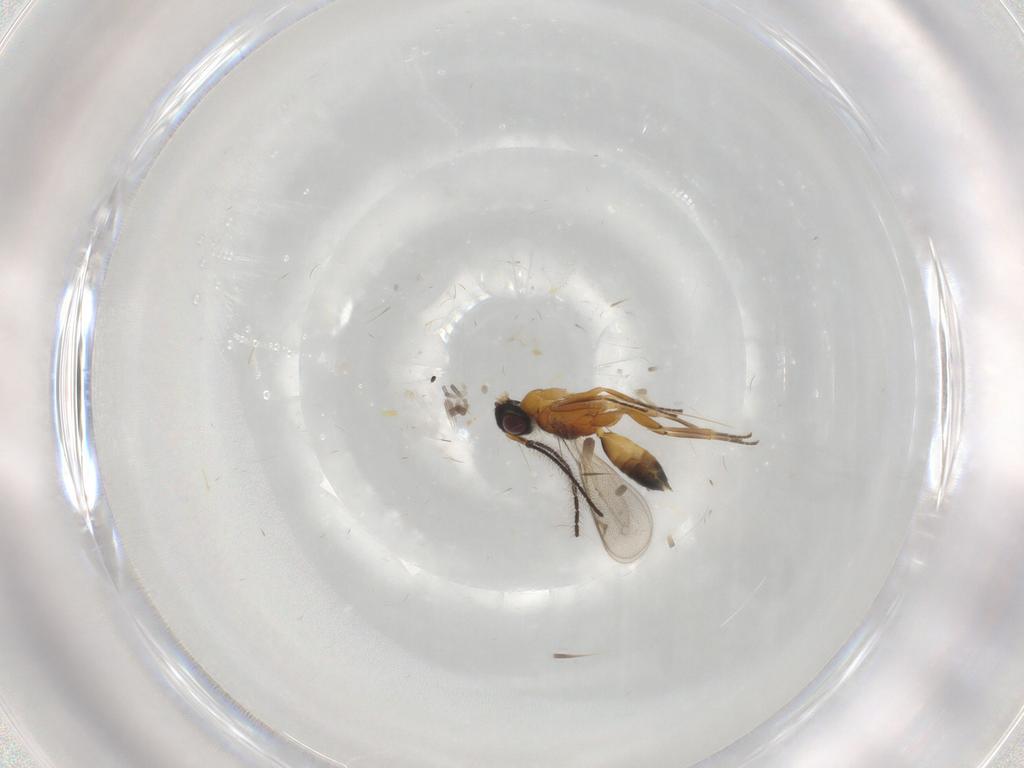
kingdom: Animalia
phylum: Arthropoda
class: Insecta
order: Hymenoptera
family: Eupelmidae
